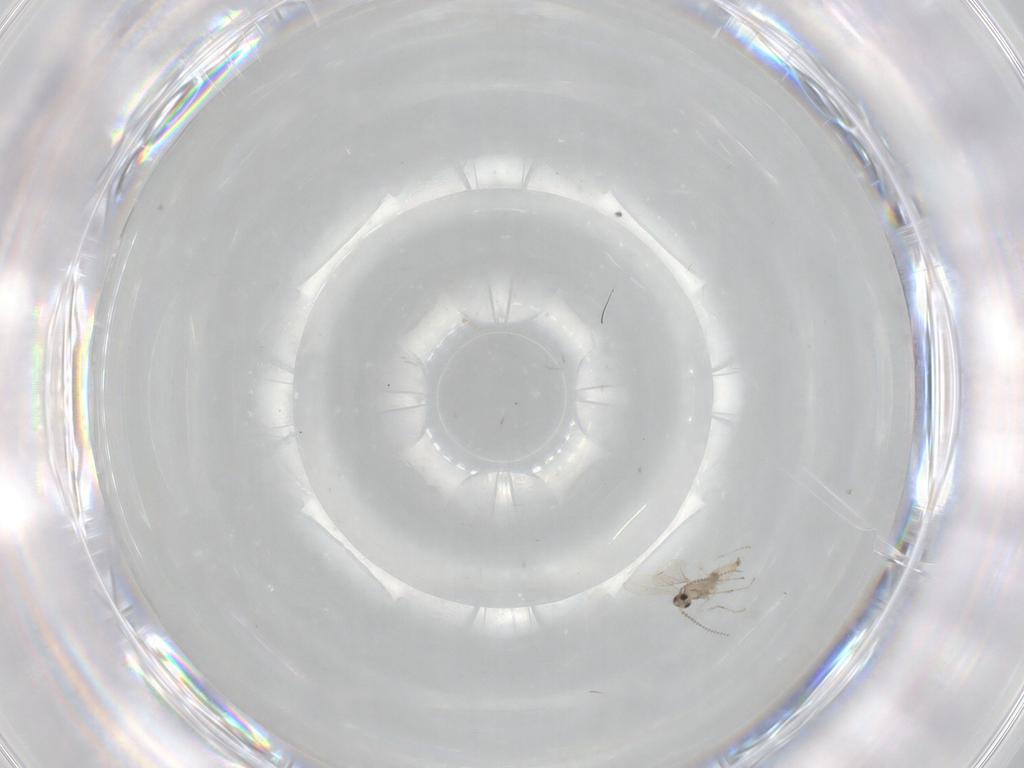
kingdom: Animalia
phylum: Arthropoda
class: Insecta
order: Diptera
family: Cecidomyiidae
